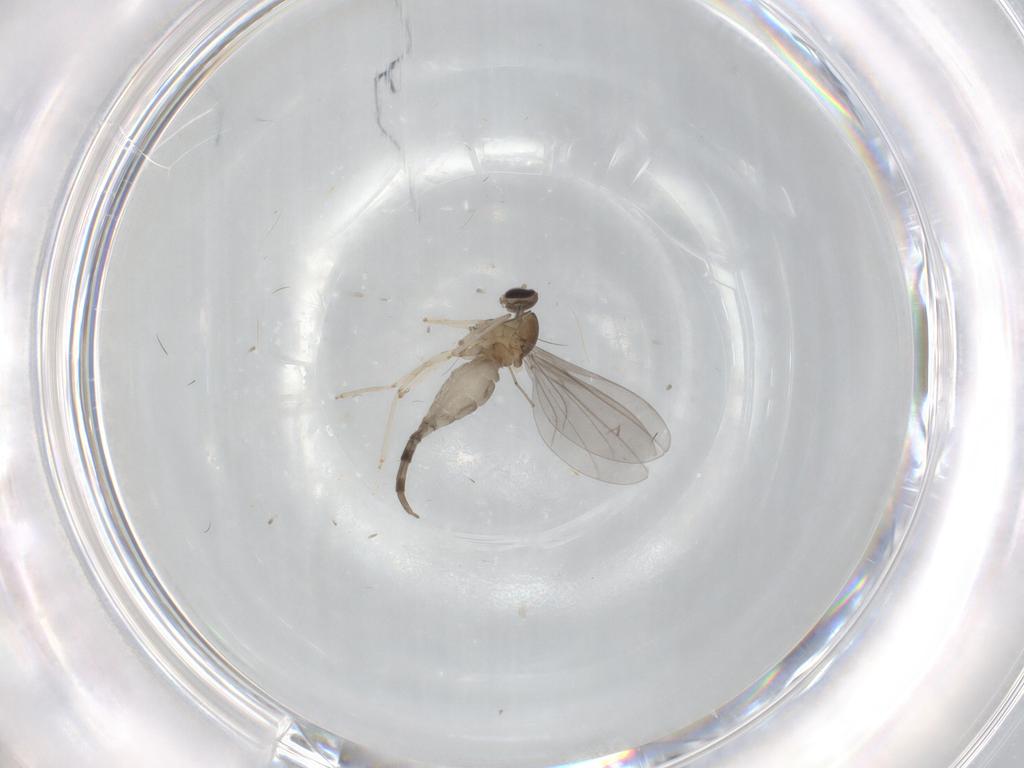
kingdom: Animalia
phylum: Arthropoda
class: Insecta
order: Diptera
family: Cecidomyiidae
